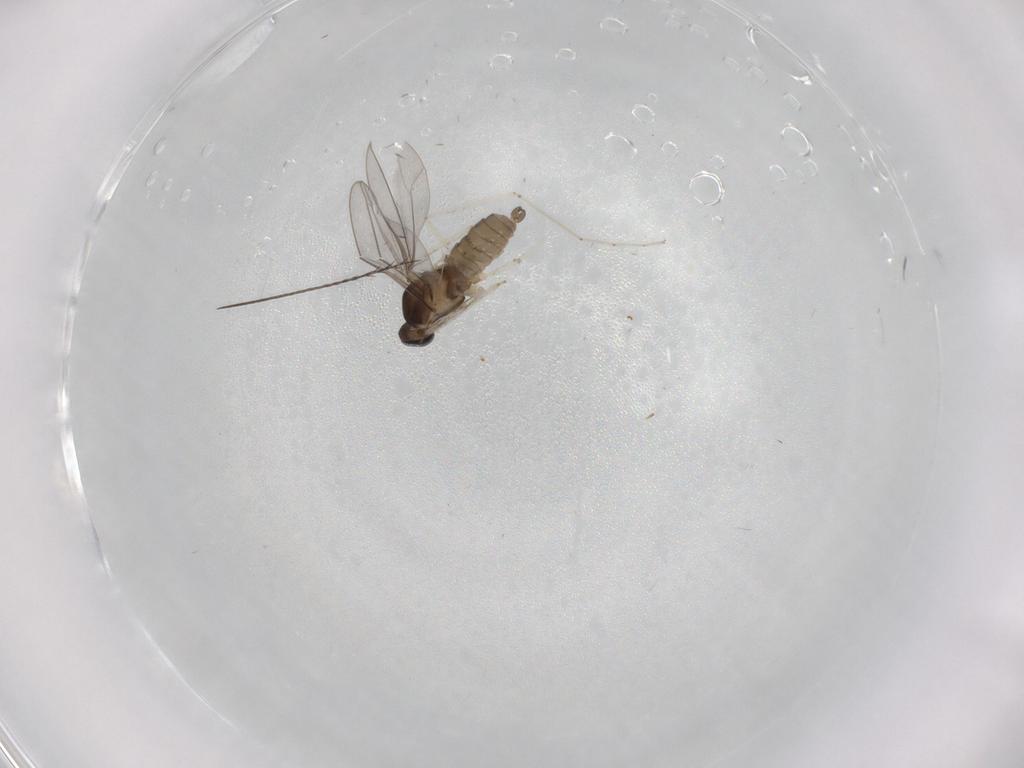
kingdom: Animalia
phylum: Arthropoda
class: Insecta
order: Diptera
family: Cecidomyiidae
